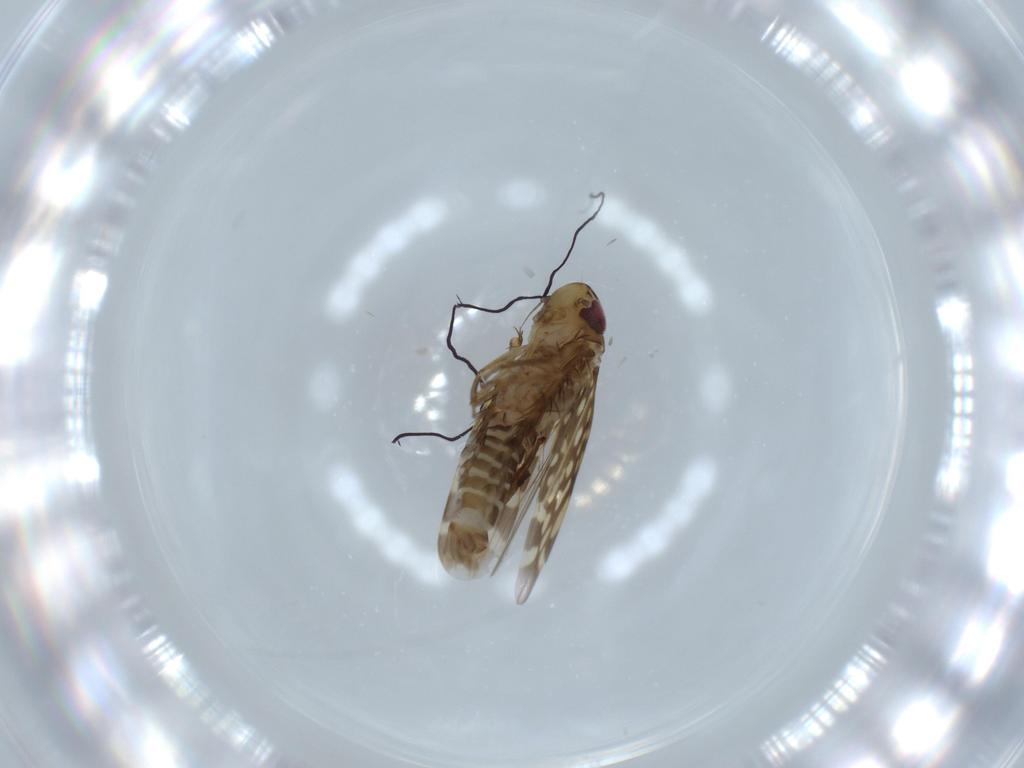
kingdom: Animalia
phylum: Arthropoda
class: Insecta
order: Hemiptera
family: Cicadellidae
